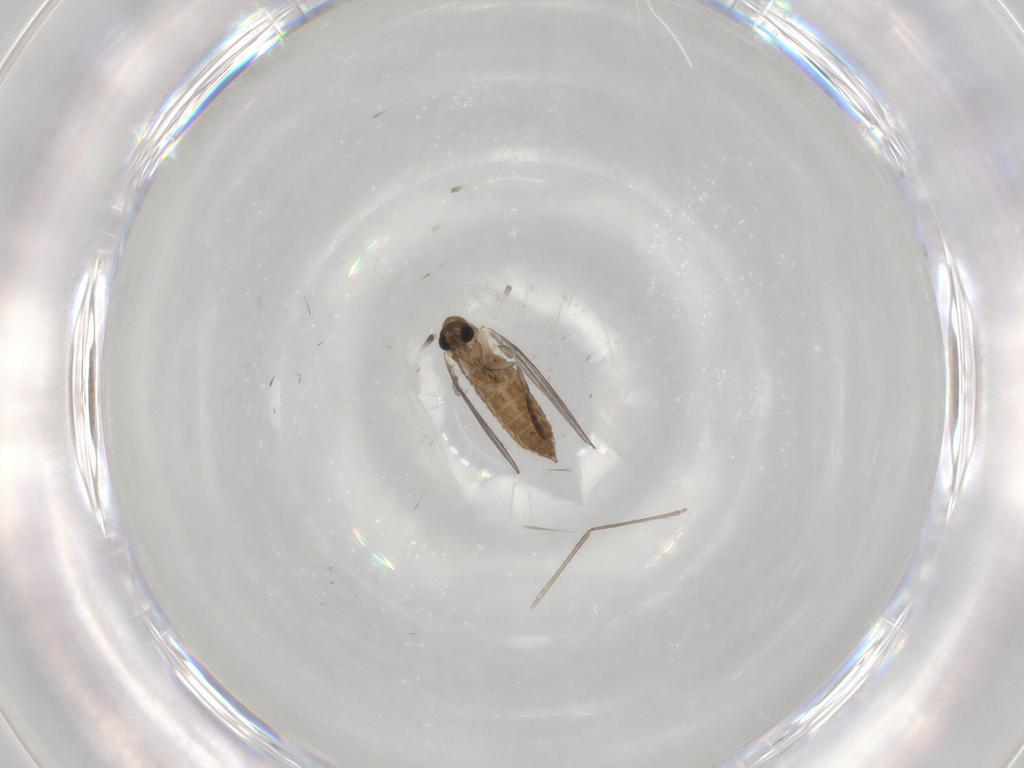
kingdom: Animalia
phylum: Arthropoda
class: Insecta
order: Diptera
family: Psychodidae
